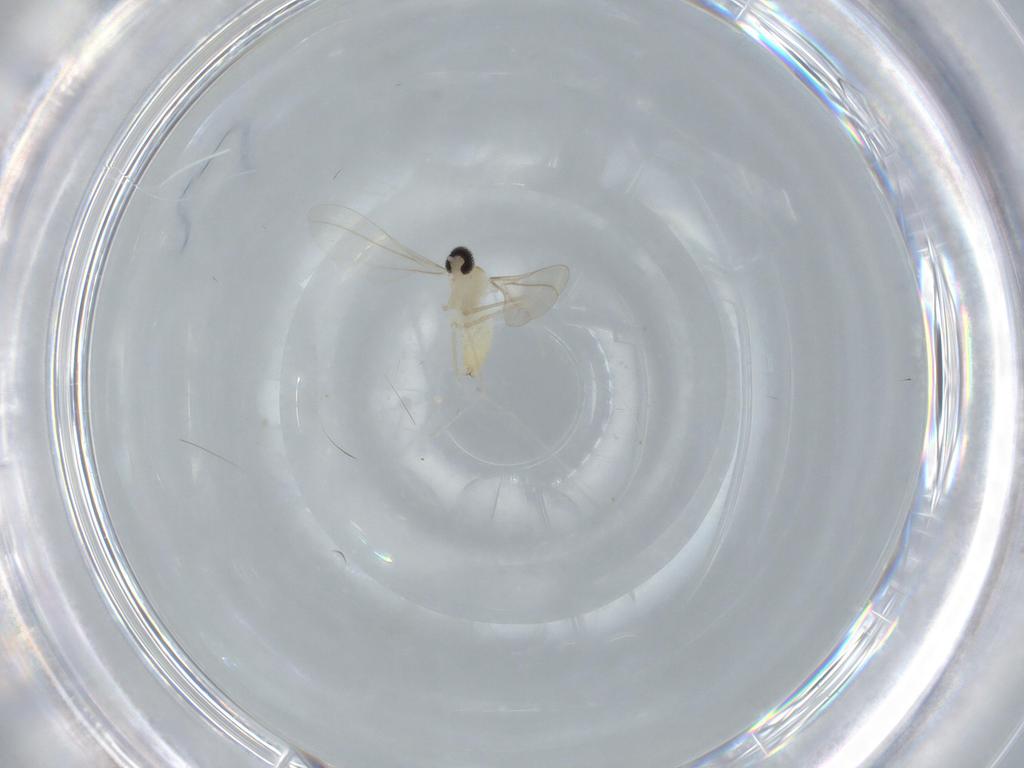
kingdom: Animalia
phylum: Arthropoda
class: Insecta
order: Diptera
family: Cecidomyiidae
